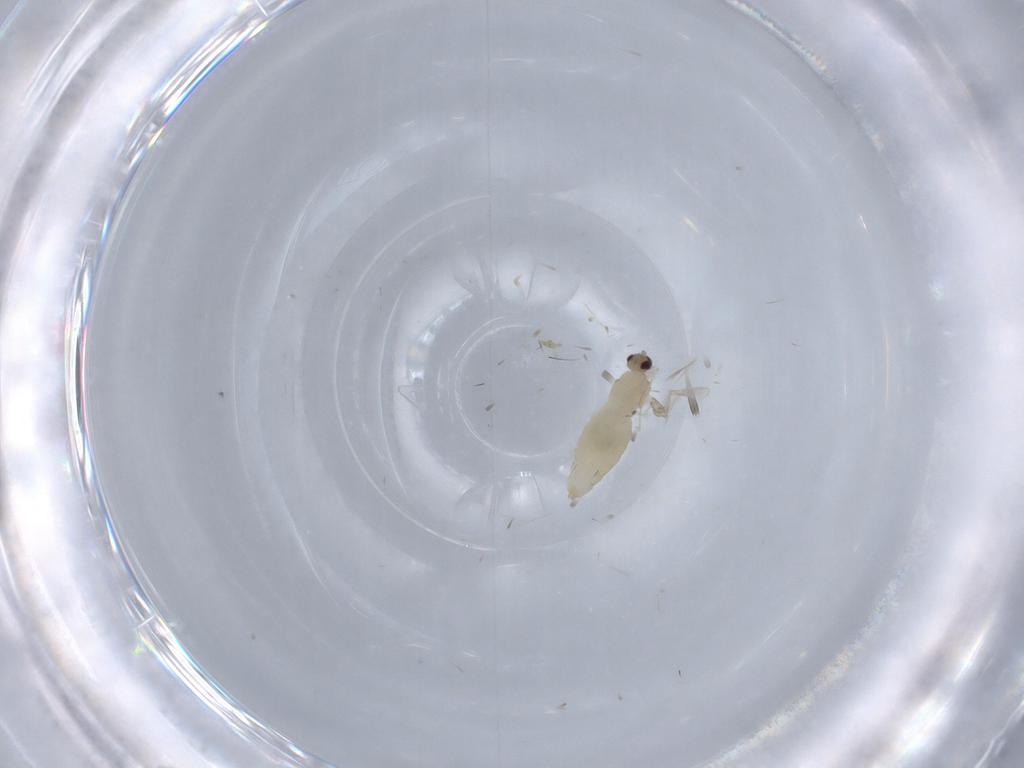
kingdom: Animalia
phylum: Arthropoda
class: Insecta
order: Diptera
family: Cecidomyiidae
